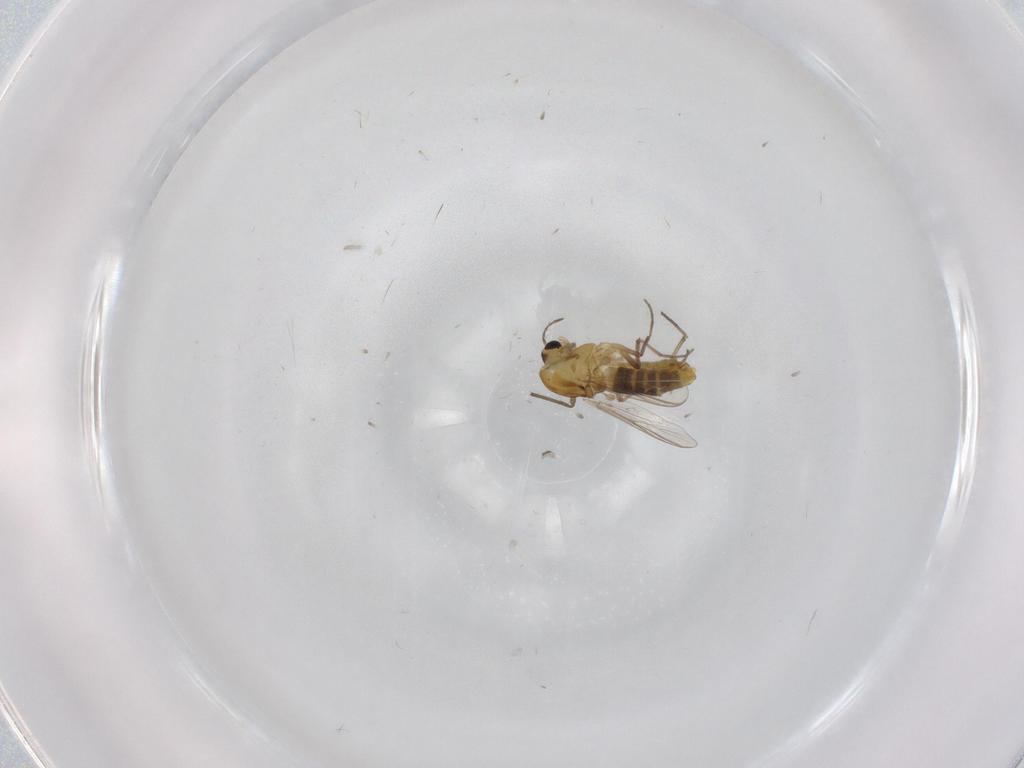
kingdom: Animalia
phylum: Arthropoda
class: Insecta
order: Diptera
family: Chironomidae
